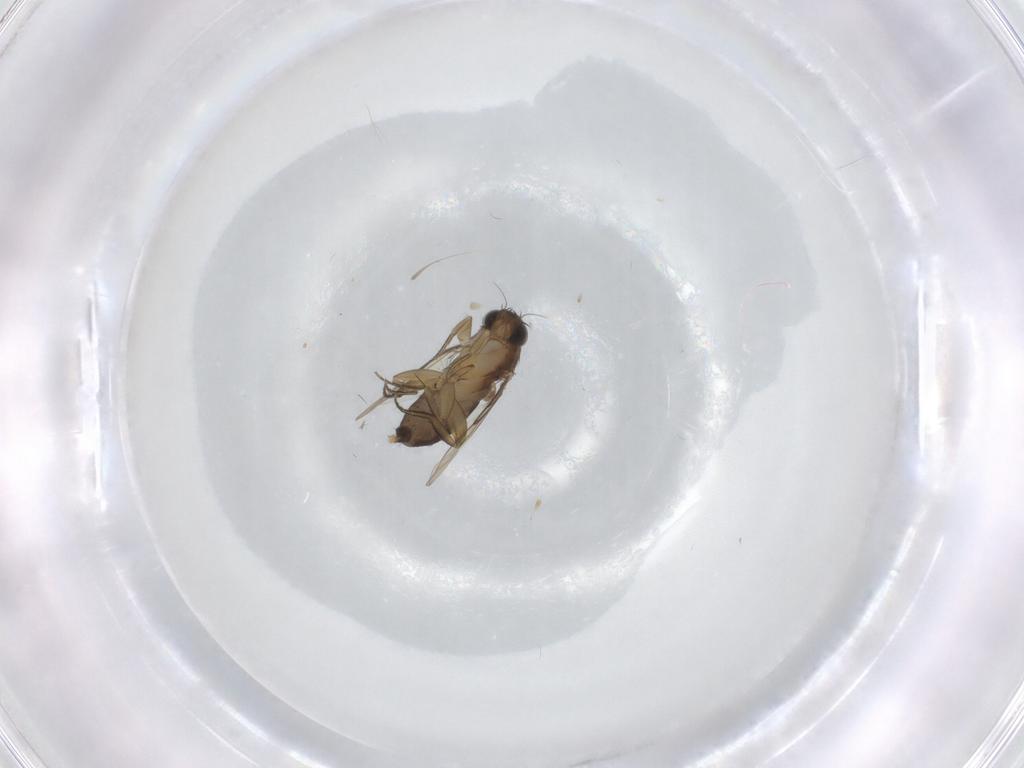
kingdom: Animalia
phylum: Arthropoda
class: Insecta
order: Diptera
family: Phoridae
